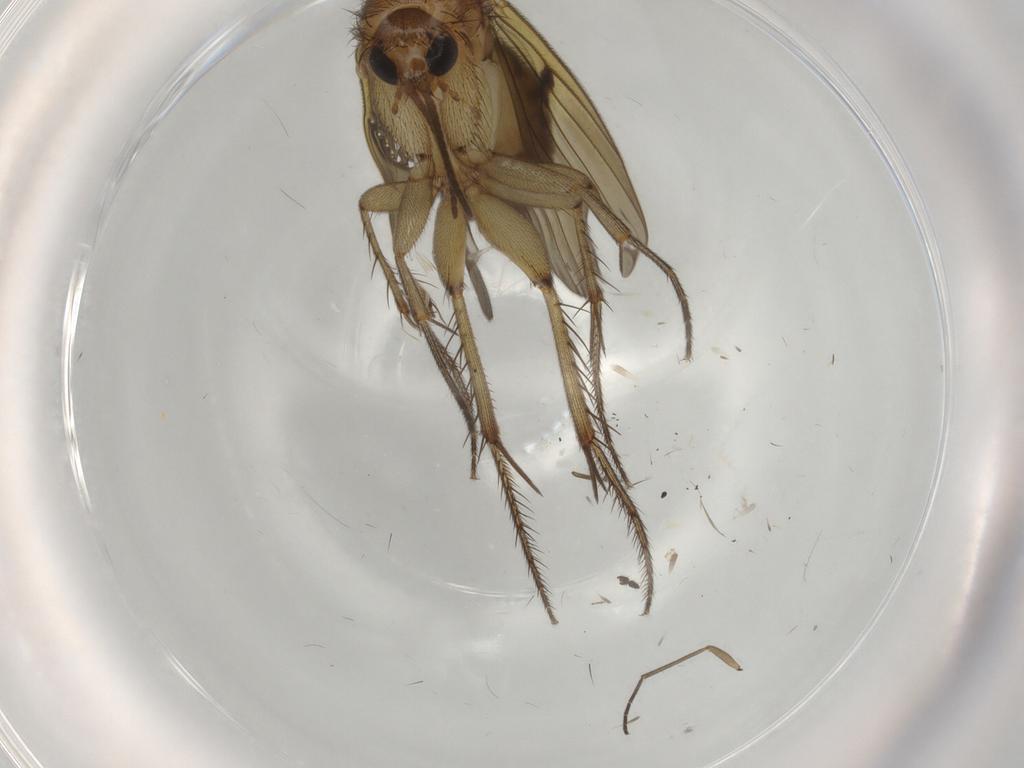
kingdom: Animalia
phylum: Arthropoda
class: Insecta
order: Diptera
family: Mycetophilidae
